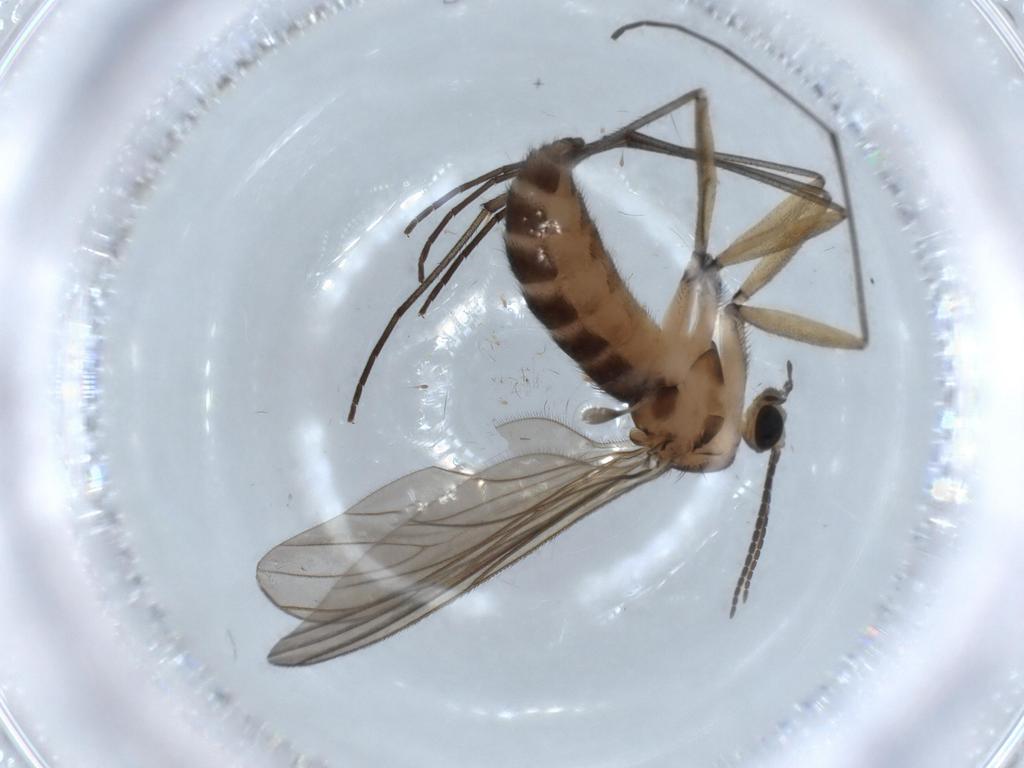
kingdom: Animalia
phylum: Arthropoda
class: Insecta
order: Diptera
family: Sciaridae
